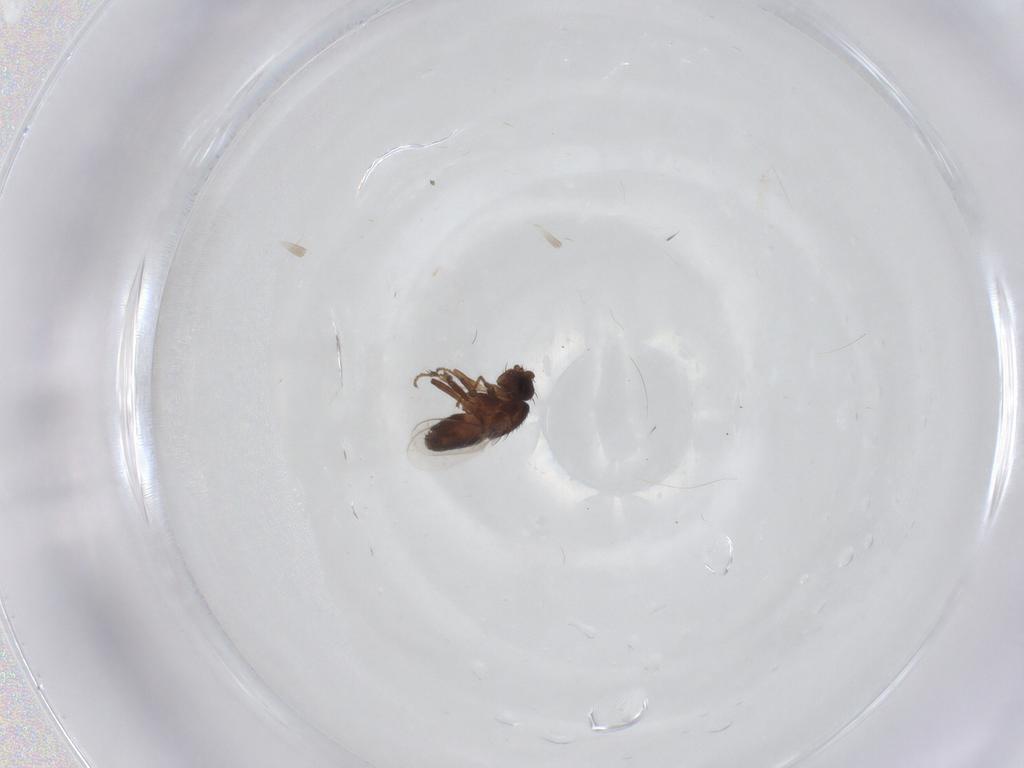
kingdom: Animalia
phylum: Arthropoda
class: Insecta
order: Diptera
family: Sphaeroceridae
